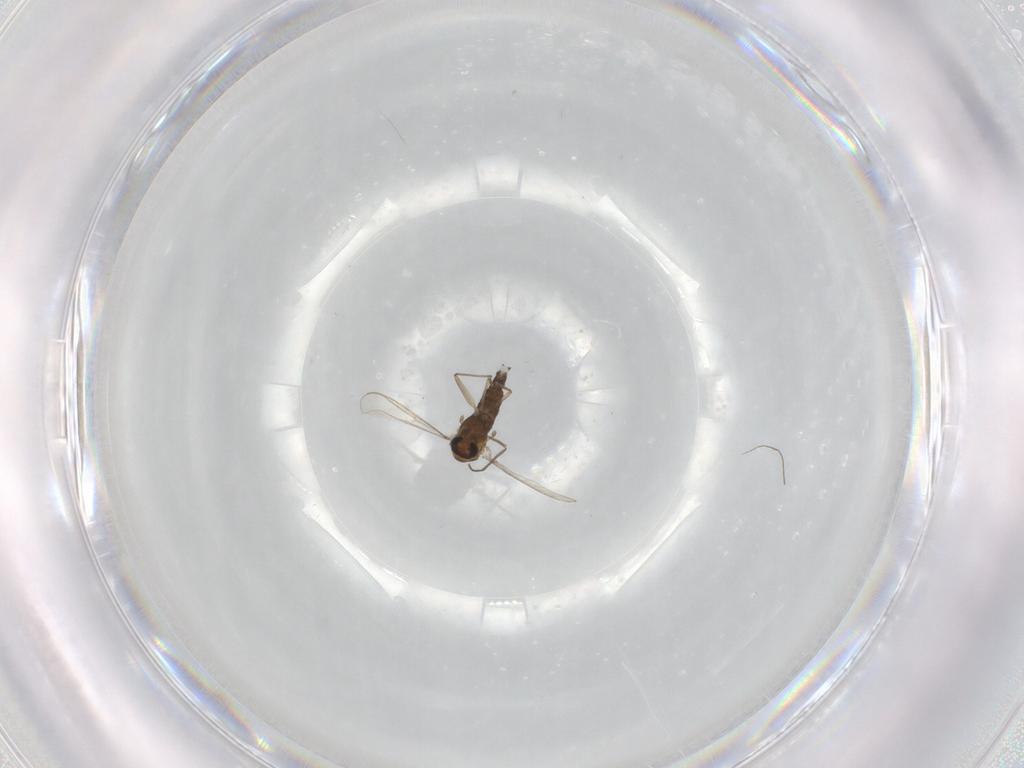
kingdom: Animalia
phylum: Arthropoda
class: Insecta
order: Diptera
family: Chironomidae
